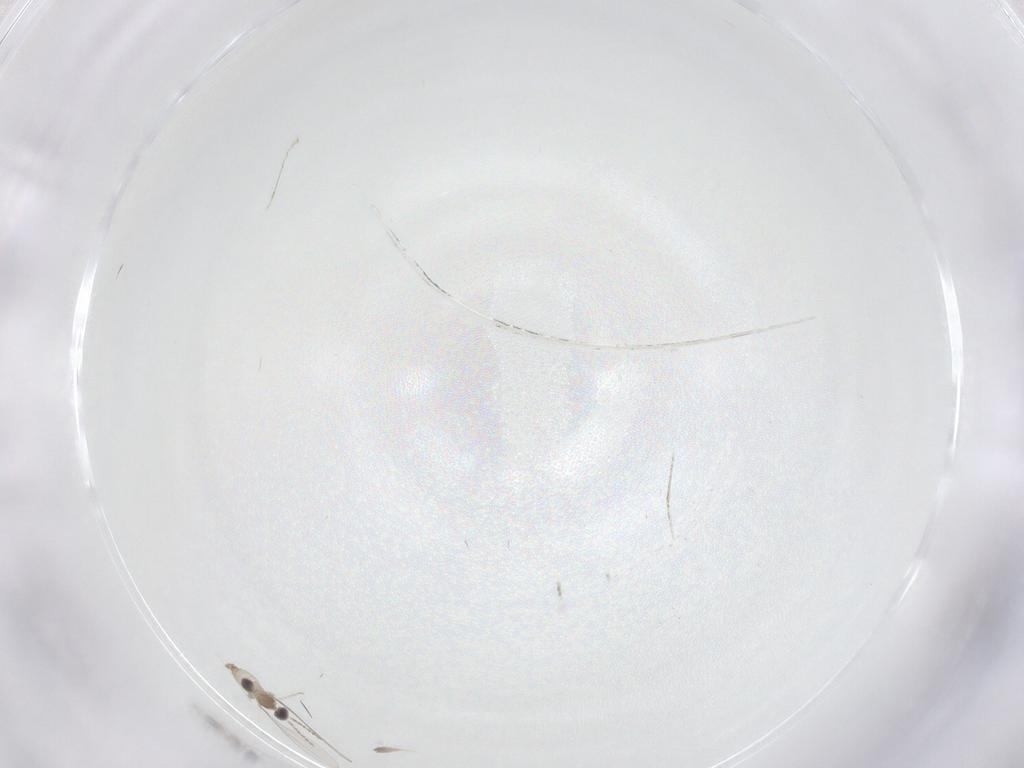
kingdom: Animalia
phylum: Arthropoda
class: Insecta
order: Diptera
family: Cecidomyiidae
